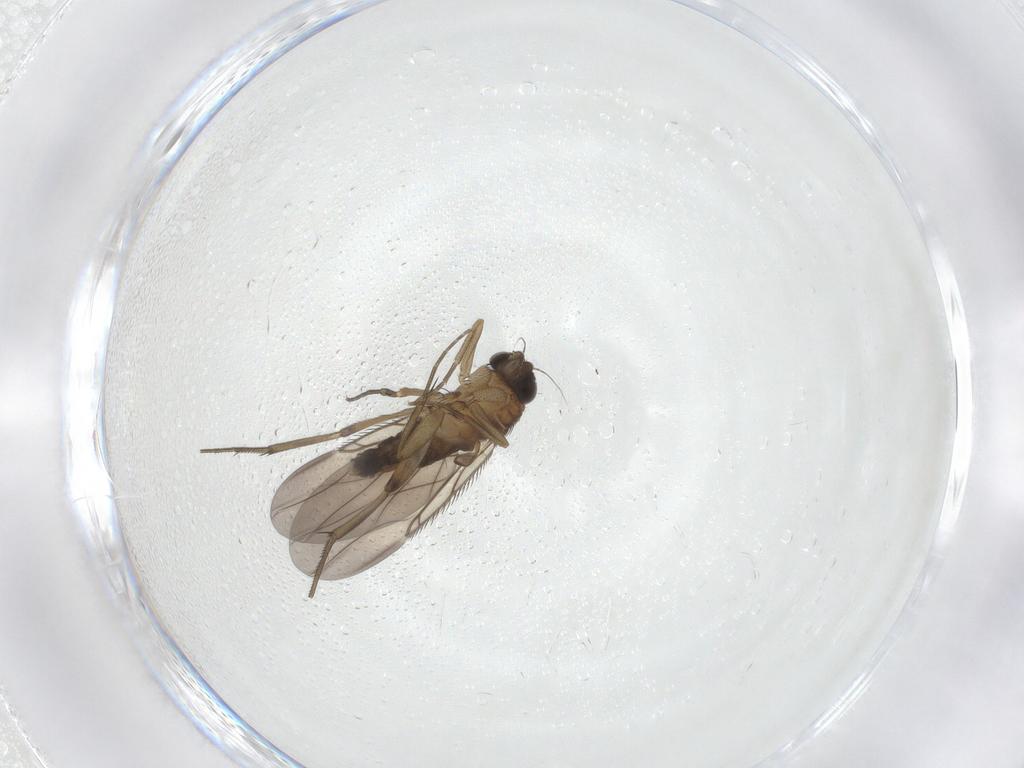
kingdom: Animalia
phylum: Arthropoda
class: Insecta
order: Diptera
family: Phoridae
